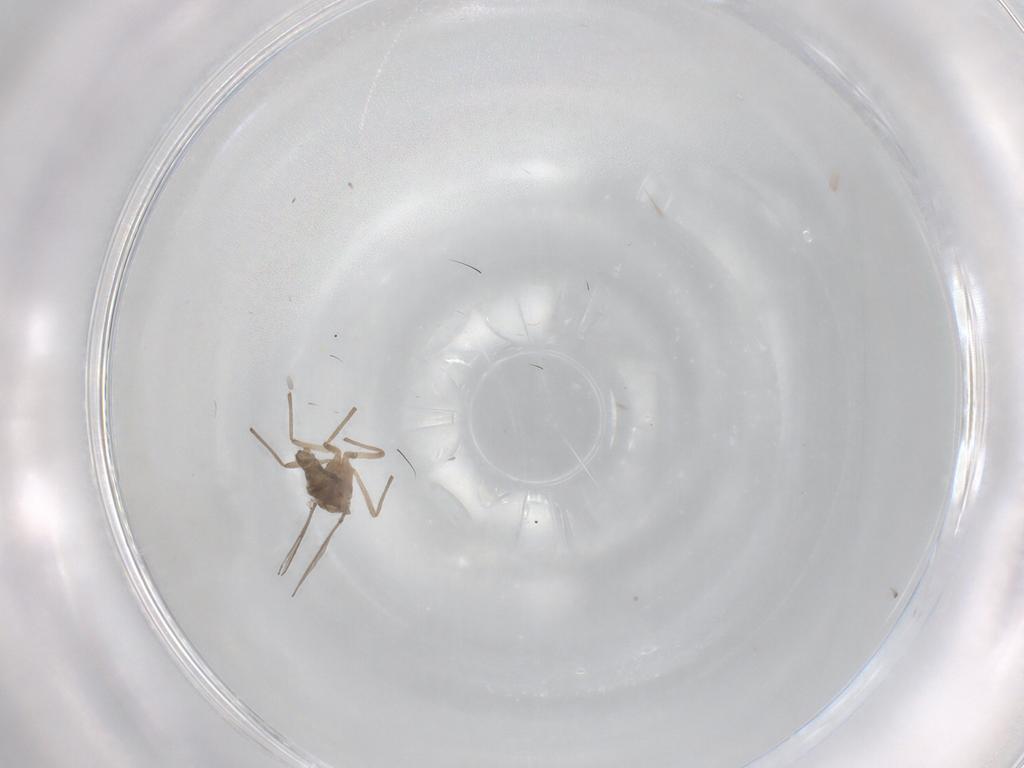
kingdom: Animalia
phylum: Arthropoda
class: Insecta
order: Diptera
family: Chironomidae
